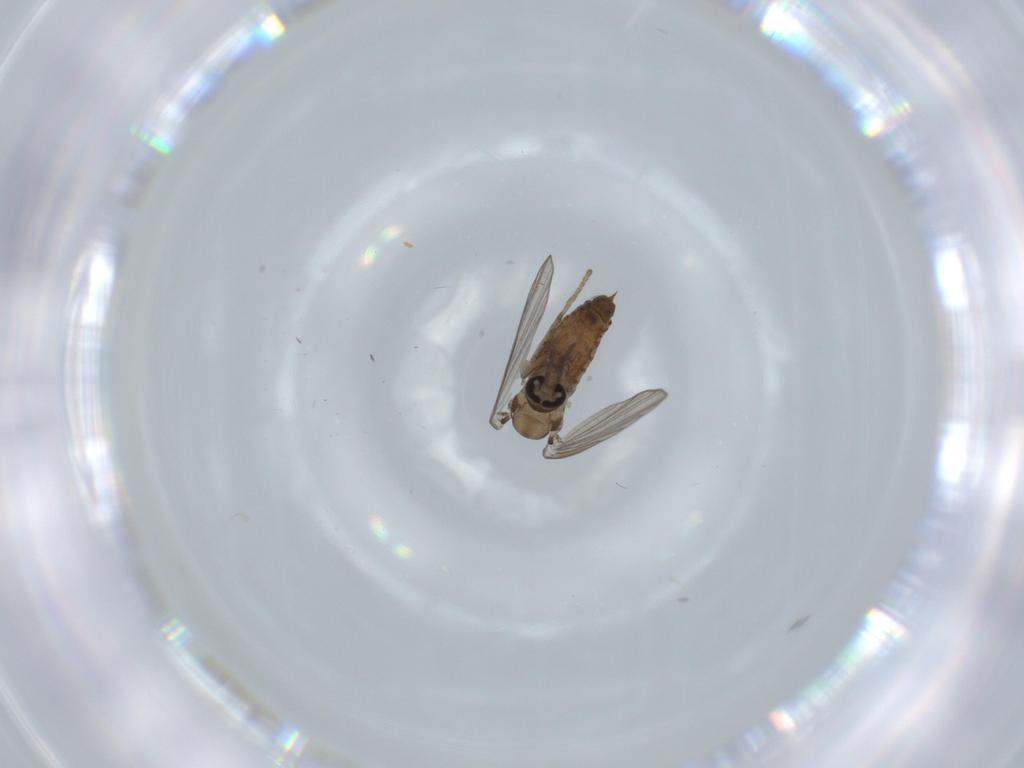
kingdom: Animalia
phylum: Arthropoda
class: Insecta
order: Diptera
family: Psychodidae
